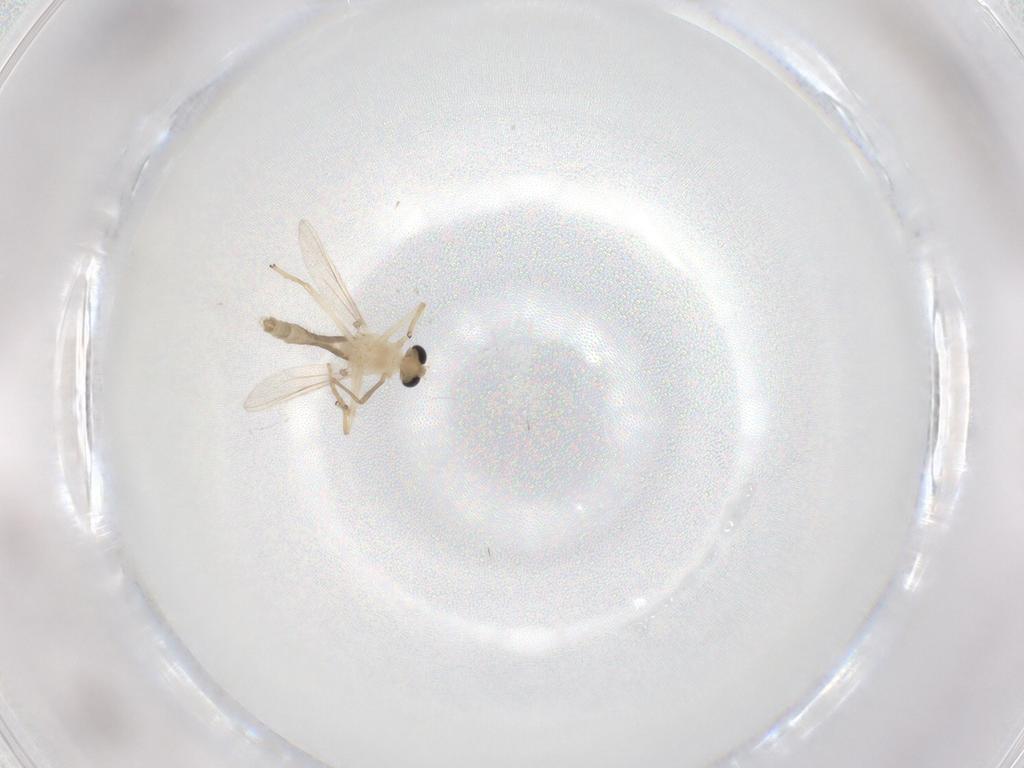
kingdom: Animalia
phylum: Arthropoda
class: Insecta
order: Diptera
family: Chironomidae
